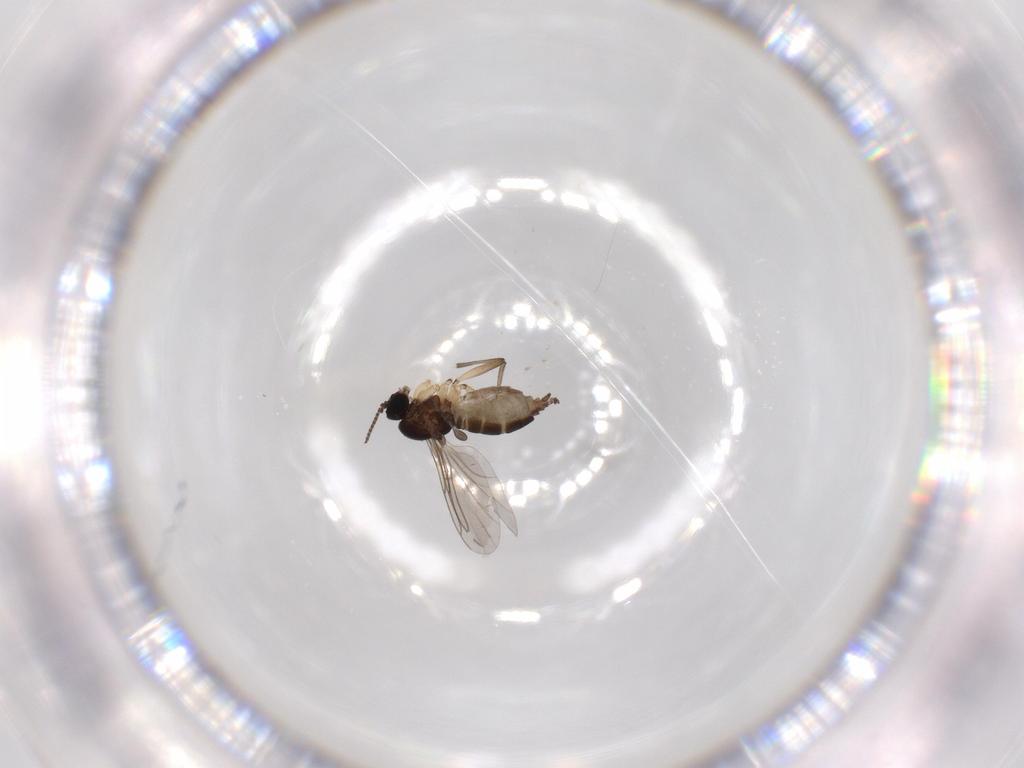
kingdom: Animalia
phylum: Arthropoda
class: Insecta
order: Diptera
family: Sciaridae
